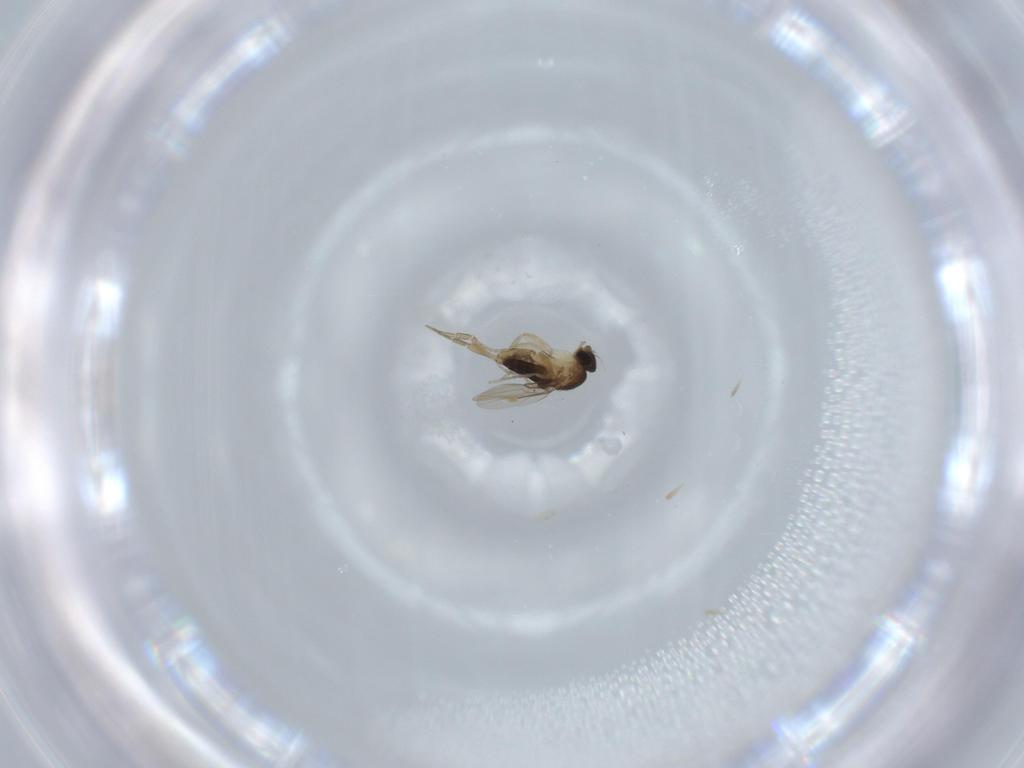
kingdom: Animalia
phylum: Arthropoda
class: Insecta
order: Diptera
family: Phoridae
